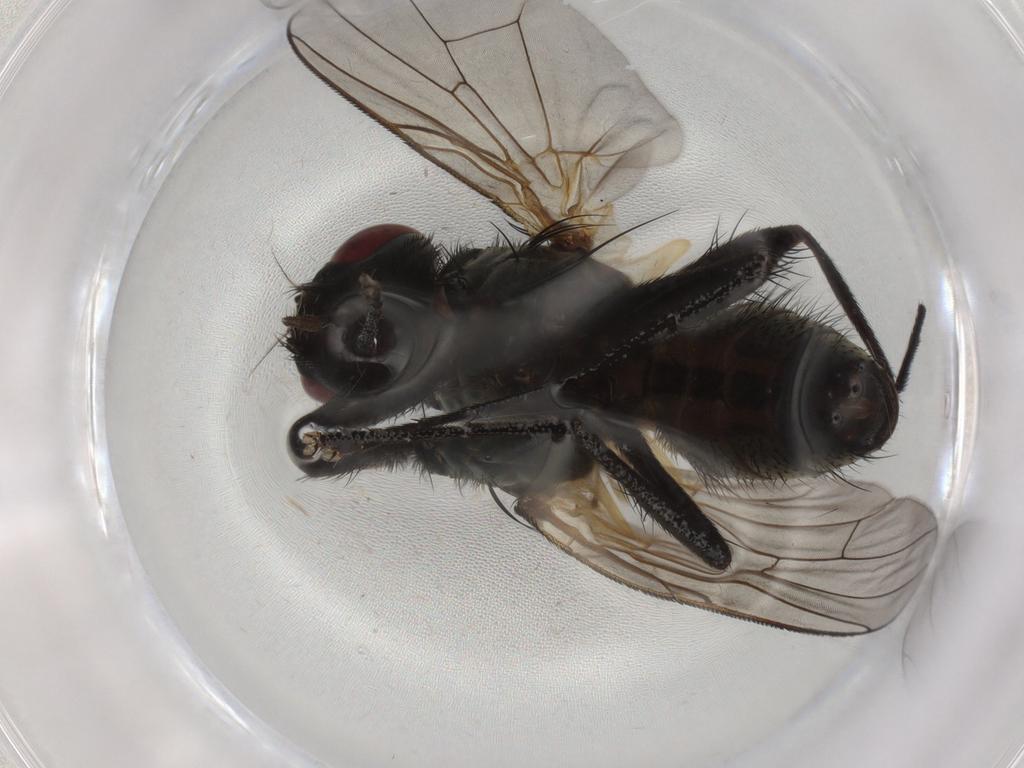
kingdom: Animalia
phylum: Arthropoda
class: Insecta
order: Diptera
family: Muscidae
